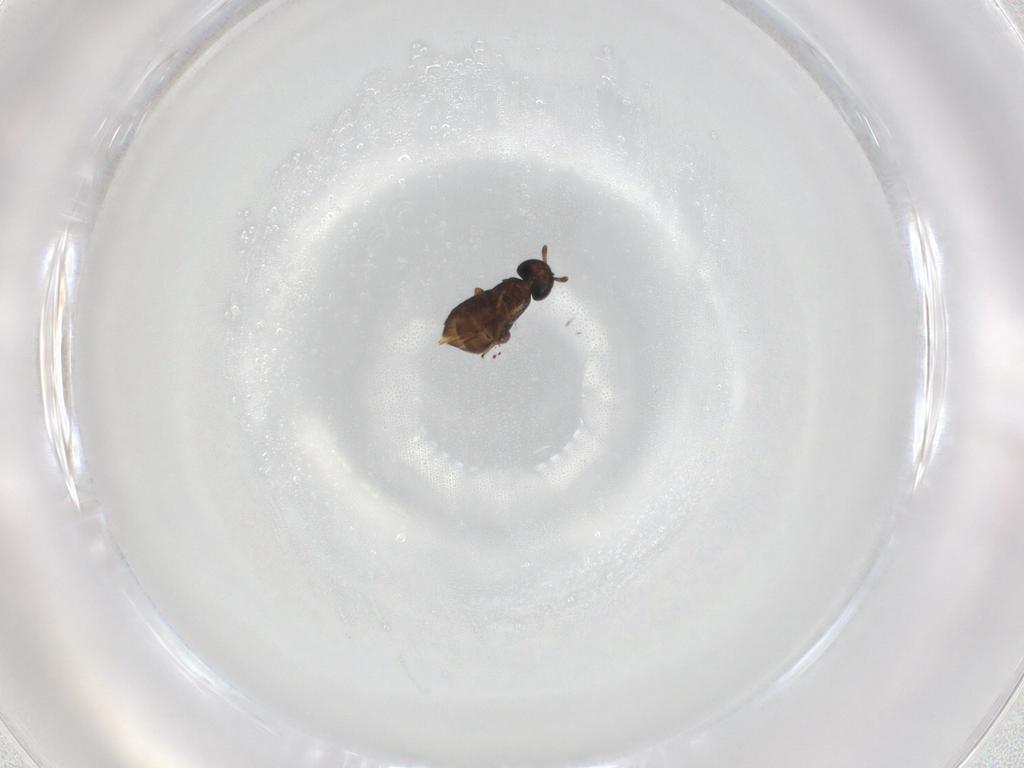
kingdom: Animalia
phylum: Arthropoda
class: Insecta
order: Hymenoptera
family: Encyrtidae
